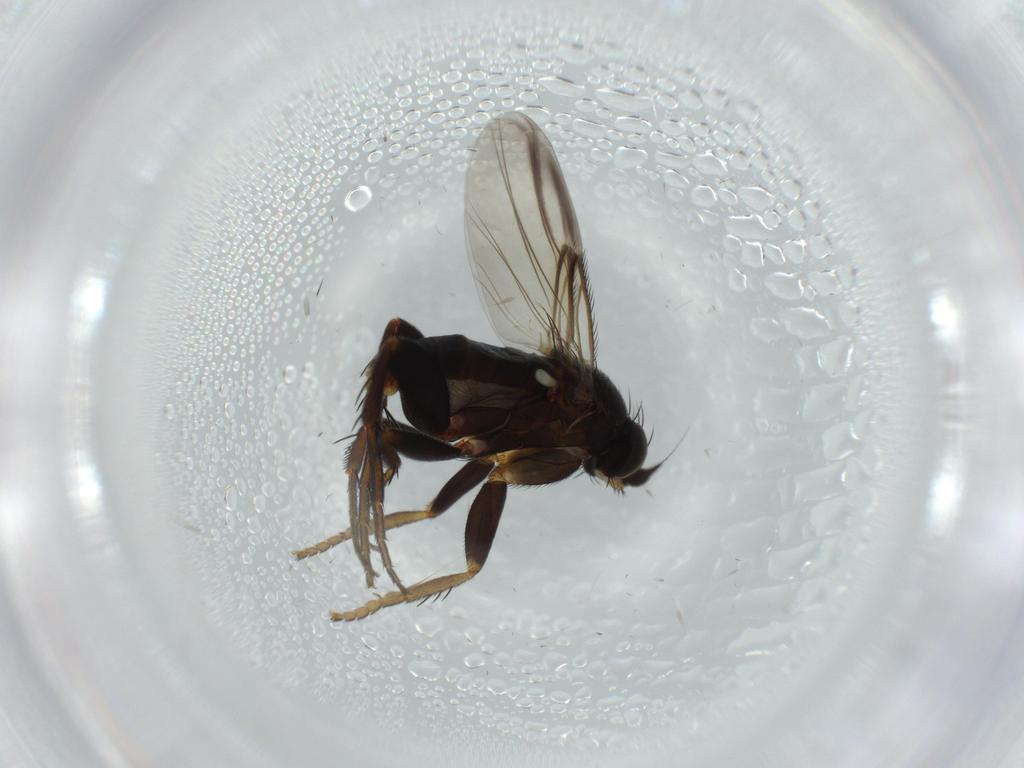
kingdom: Animalia
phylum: Arthropoda
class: Insecta
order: Diptera
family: Phoridae
